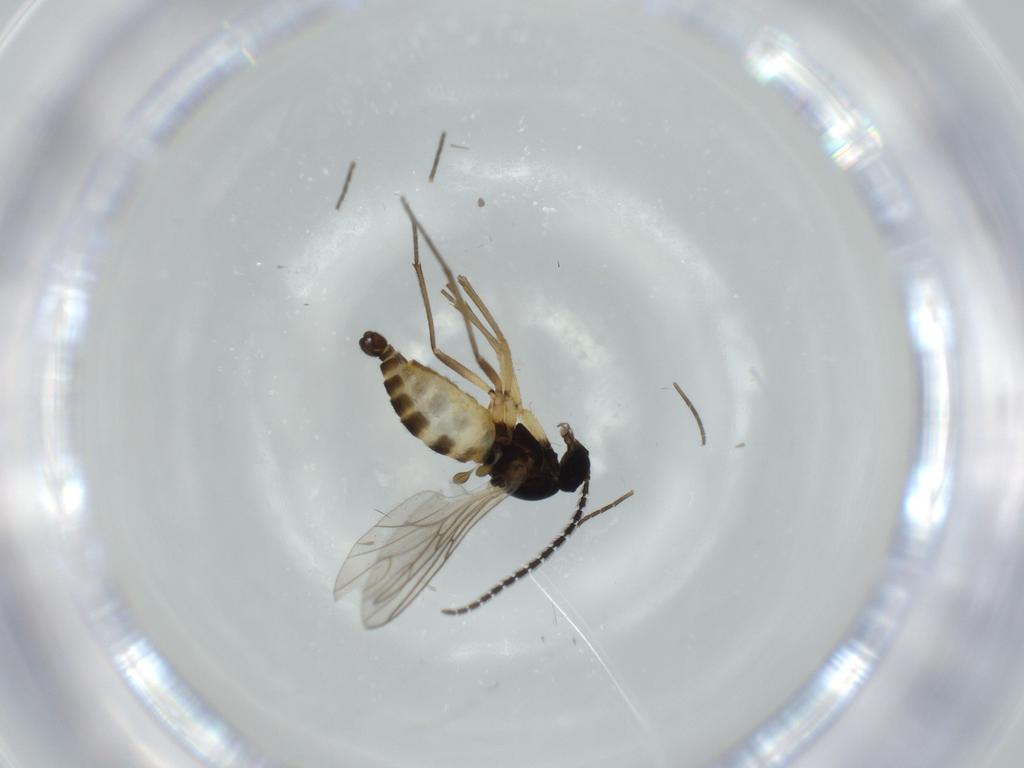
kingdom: Animalia
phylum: Arthropoda
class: Insecta
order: Diptera
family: Sciaridae
